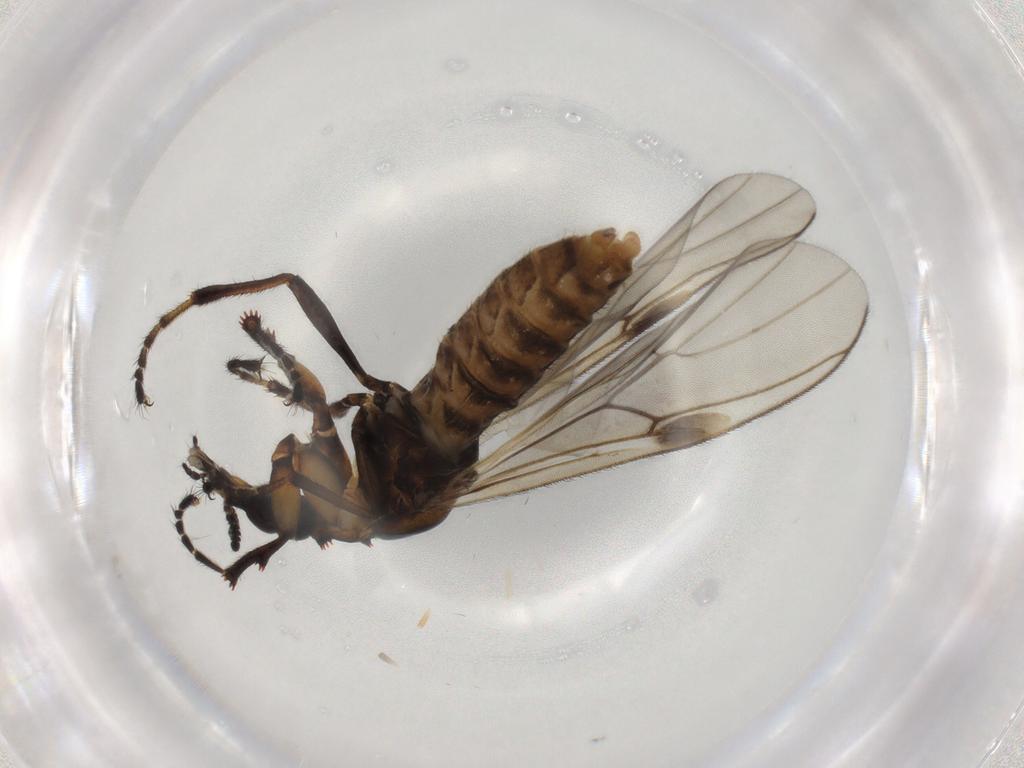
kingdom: Animalia
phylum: Arthropoda
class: Insecta
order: Diptera
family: Bibionidae
